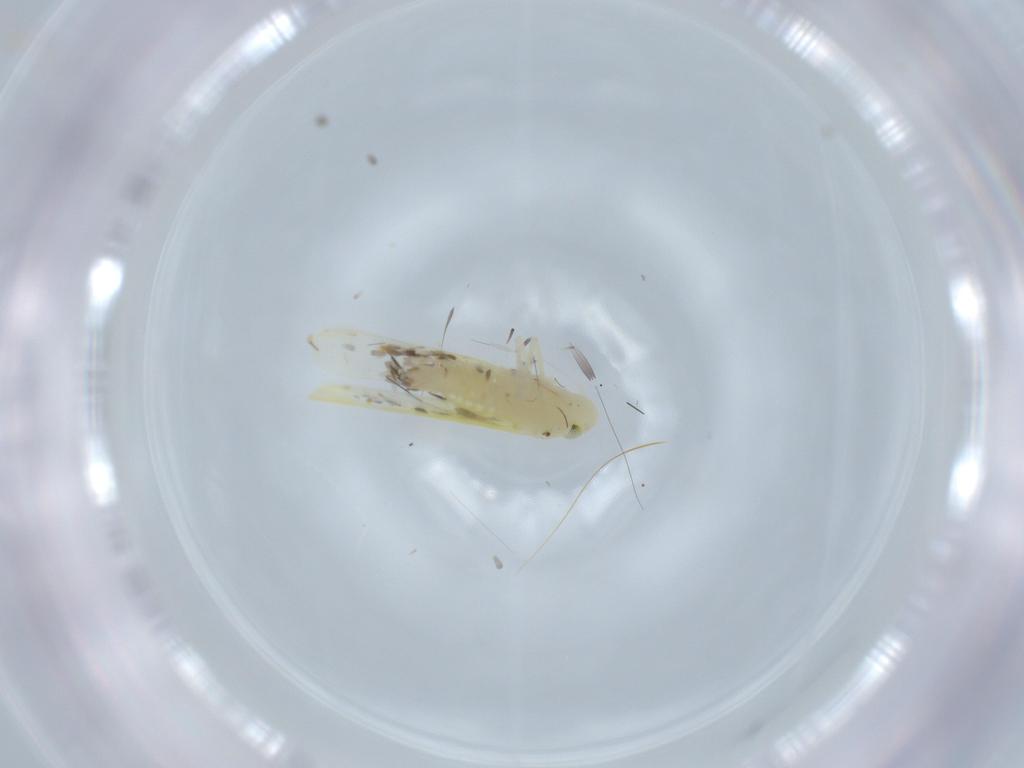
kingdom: Animalia
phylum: Arthropoda
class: Insecta
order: Hemiptera
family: Cicadellidae
